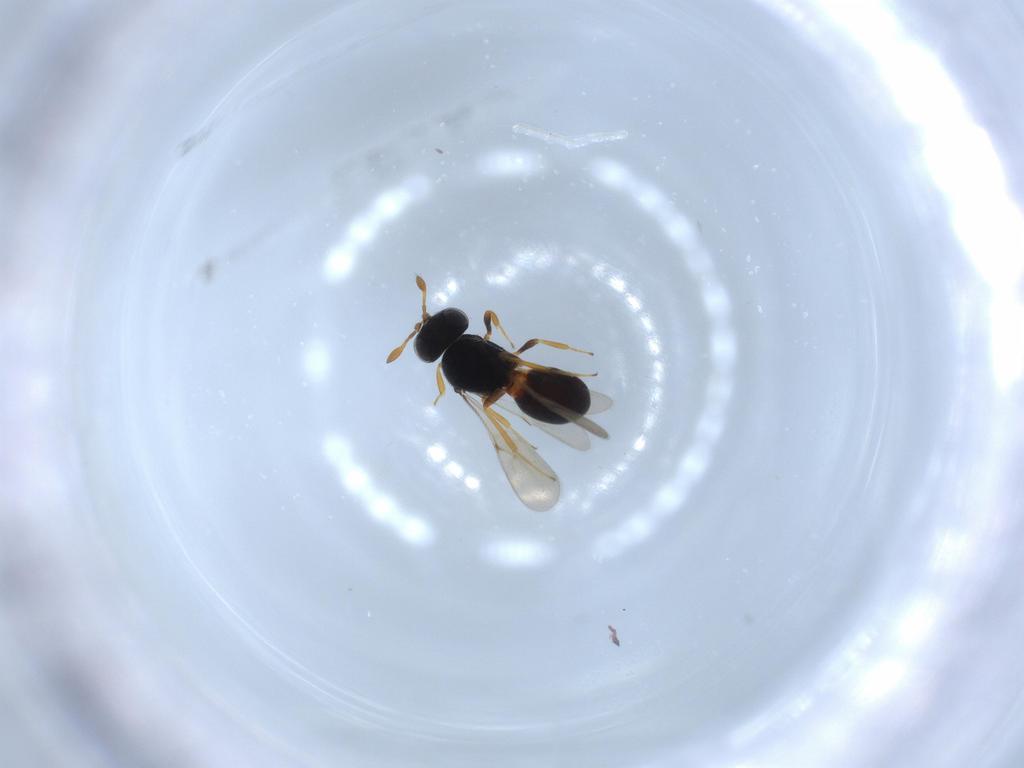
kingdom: Animalia
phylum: Arthropoda
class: Insecta
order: Hymenoptera
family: Scelionidae
